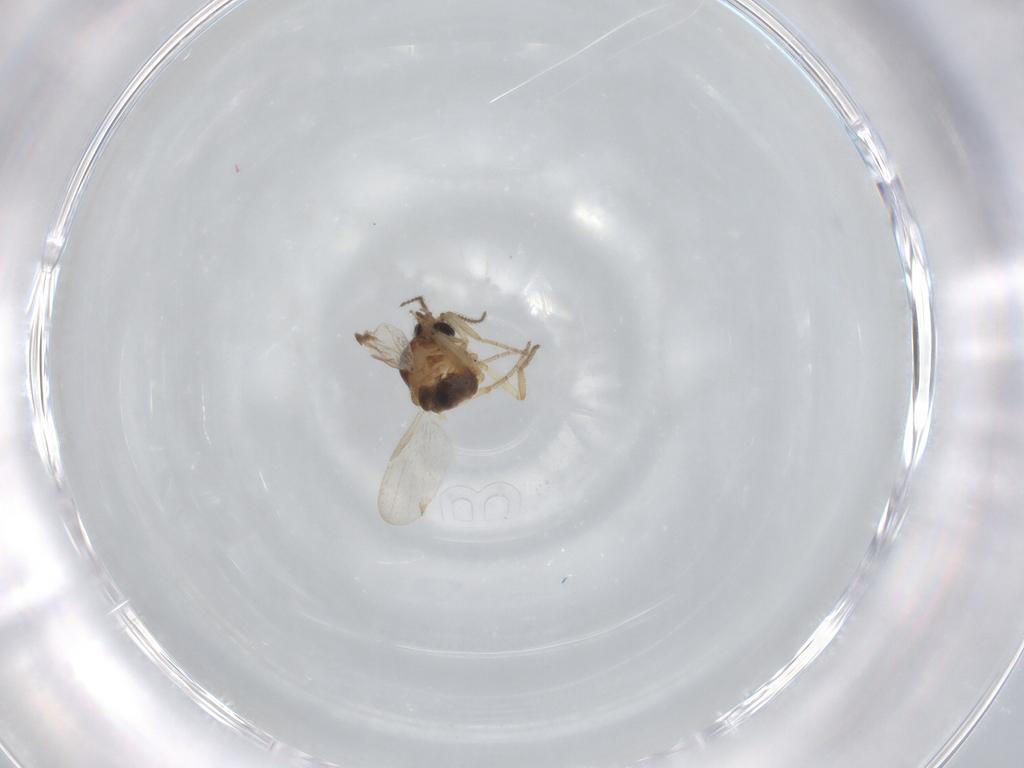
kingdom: Animalia
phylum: Arthropoda
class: Insecta
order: Diptera
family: Ceratopogonidae
